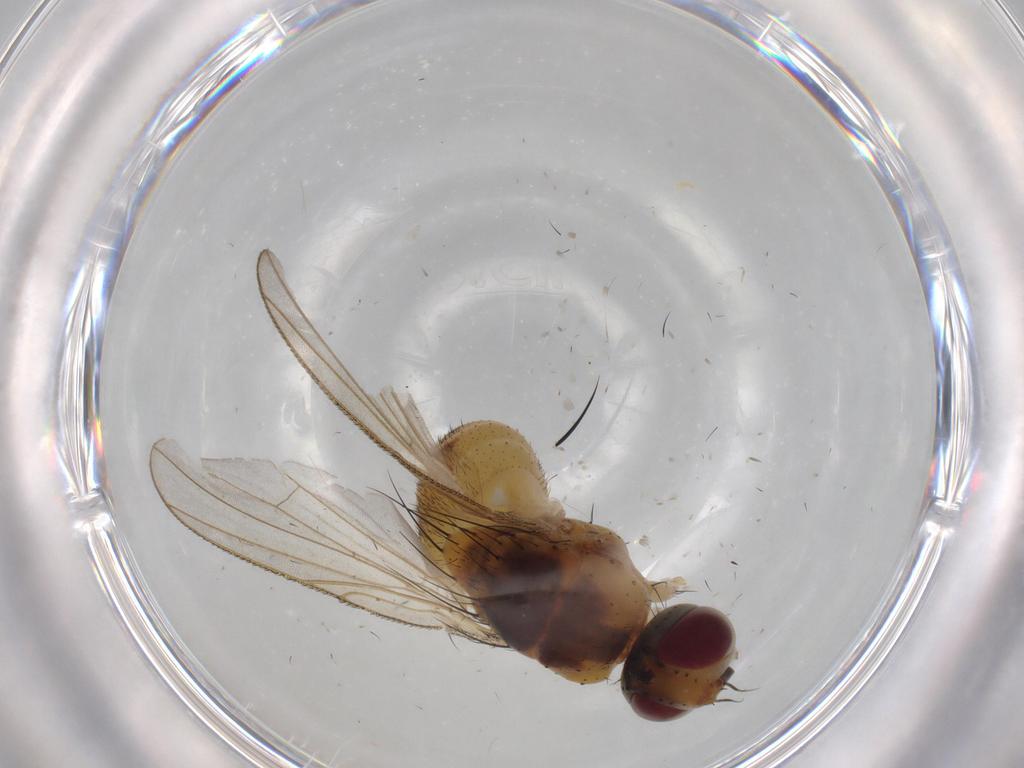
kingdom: Animalia
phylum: Arthropoda
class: Insecta
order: Diptera
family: Muscidae
